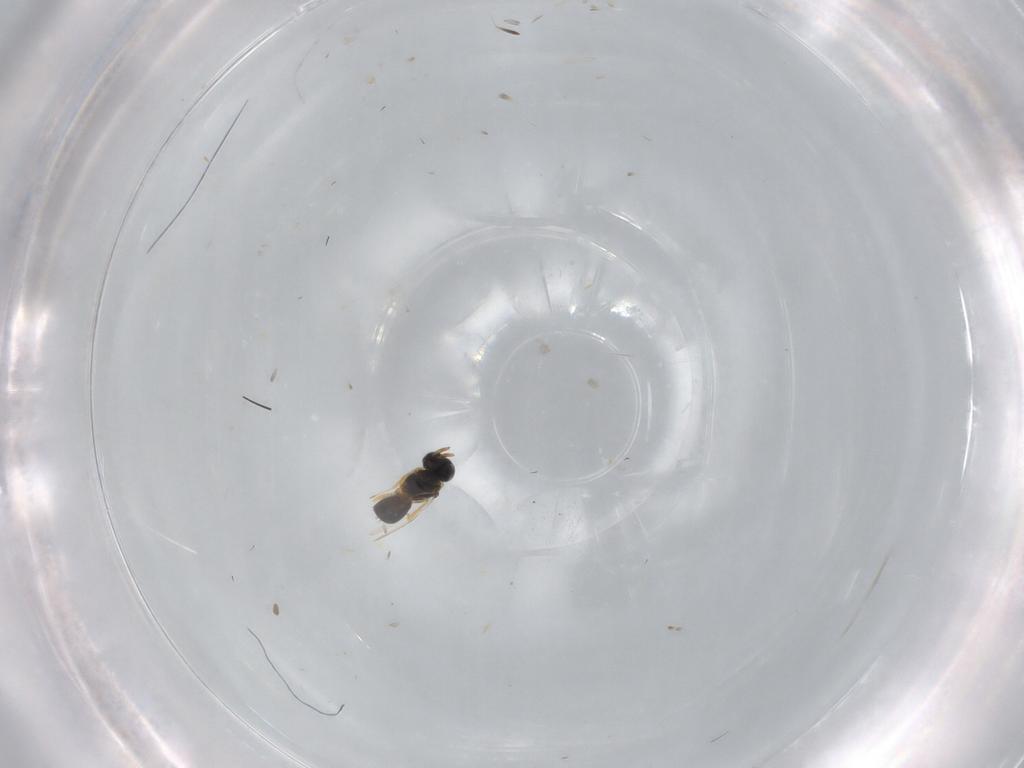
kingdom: Animalia
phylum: Arthropoda
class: Insecta
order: Hymenoptera
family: Scelionidae
